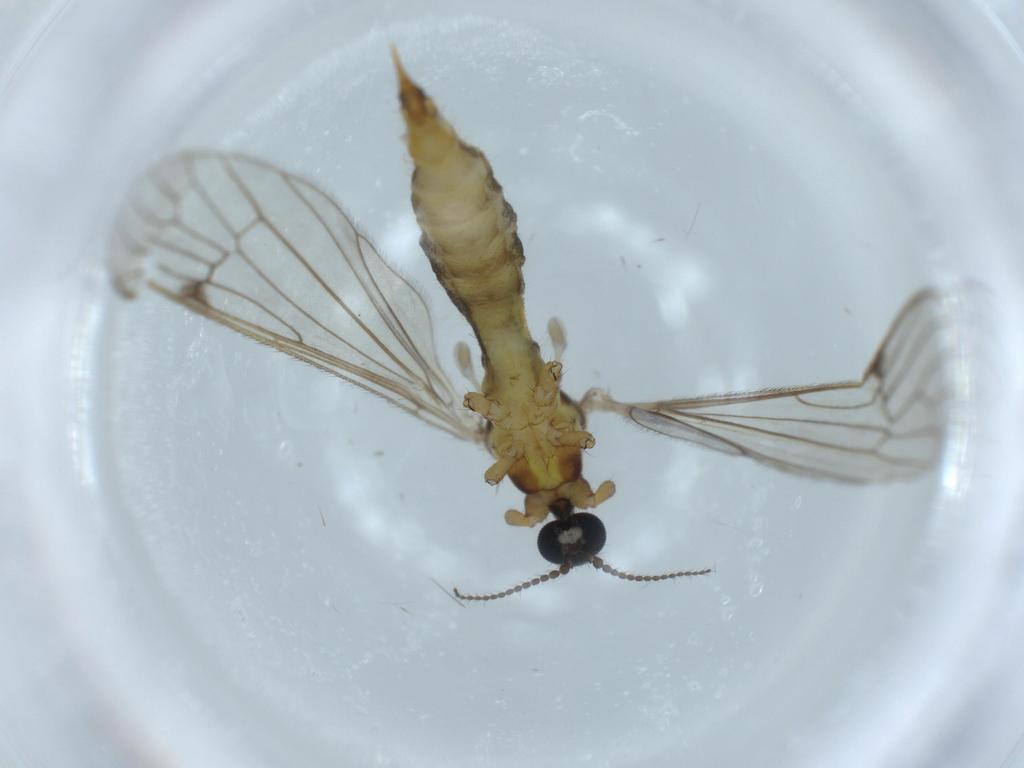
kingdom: Animalia
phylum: Arthropoda
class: Insecta
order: Diptera
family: Limoniidae
